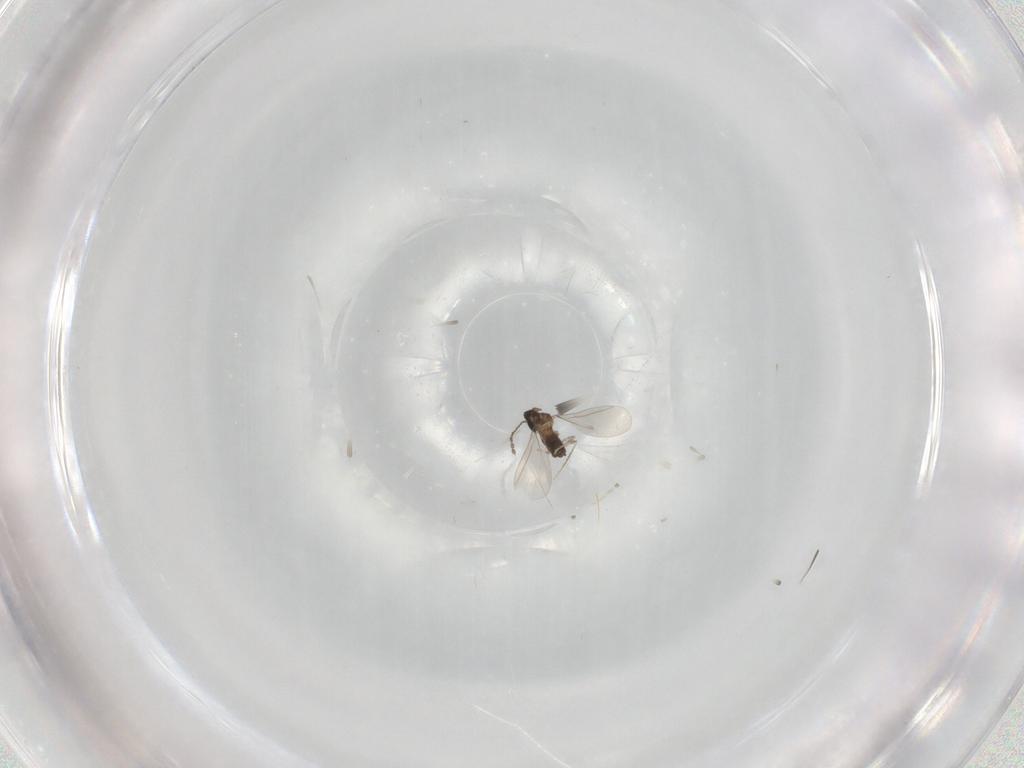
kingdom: Animalia
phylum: Arthropoda
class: Insecta
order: Diptera
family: Cecidomyiidae
